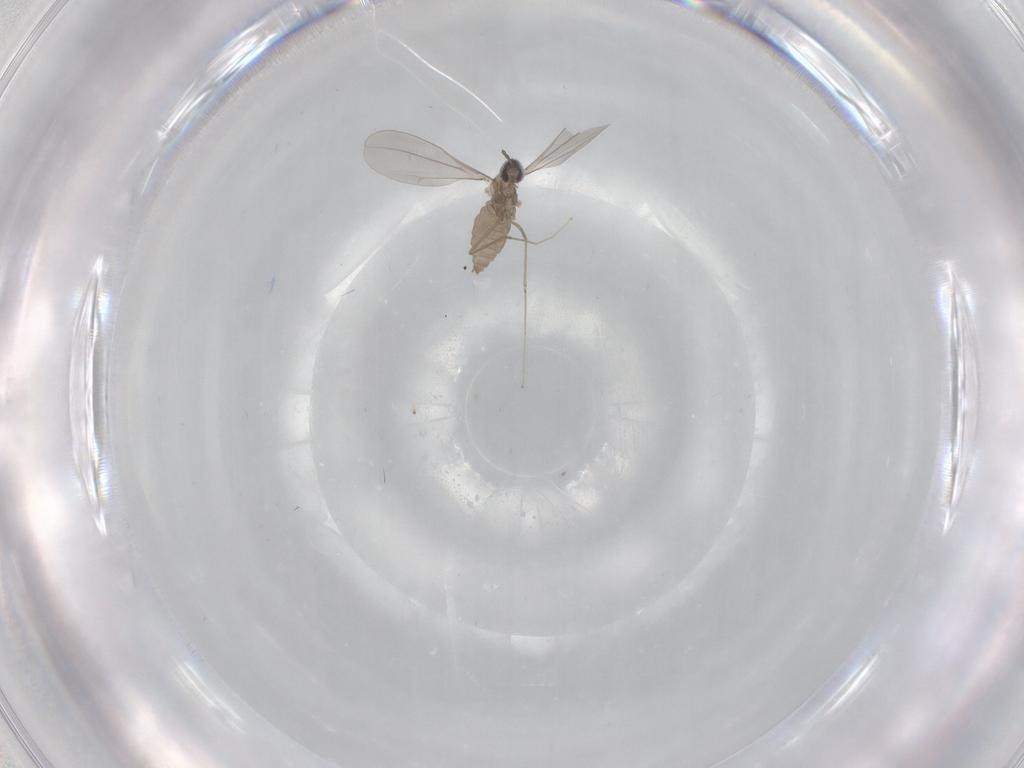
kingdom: Animalia
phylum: Arthropoda
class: Insecta
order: Diptera
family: Cecidomyiidae
